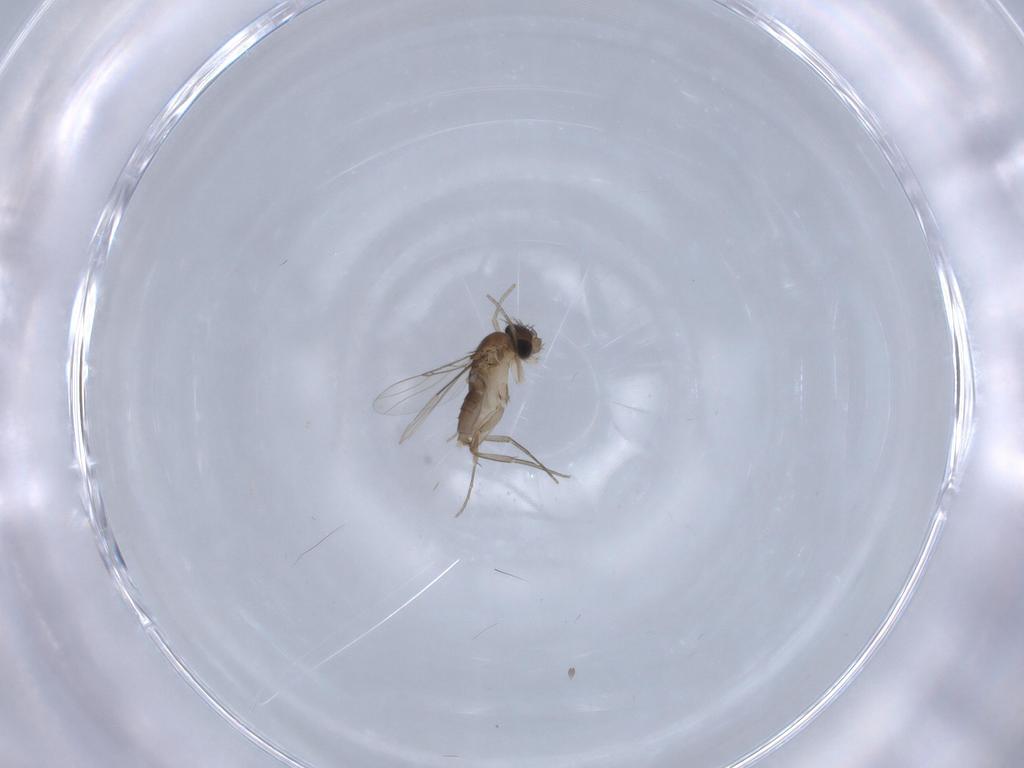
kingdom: Animalia
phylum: Arthropoda
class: Insecta
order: Diptera
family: Phoridae
